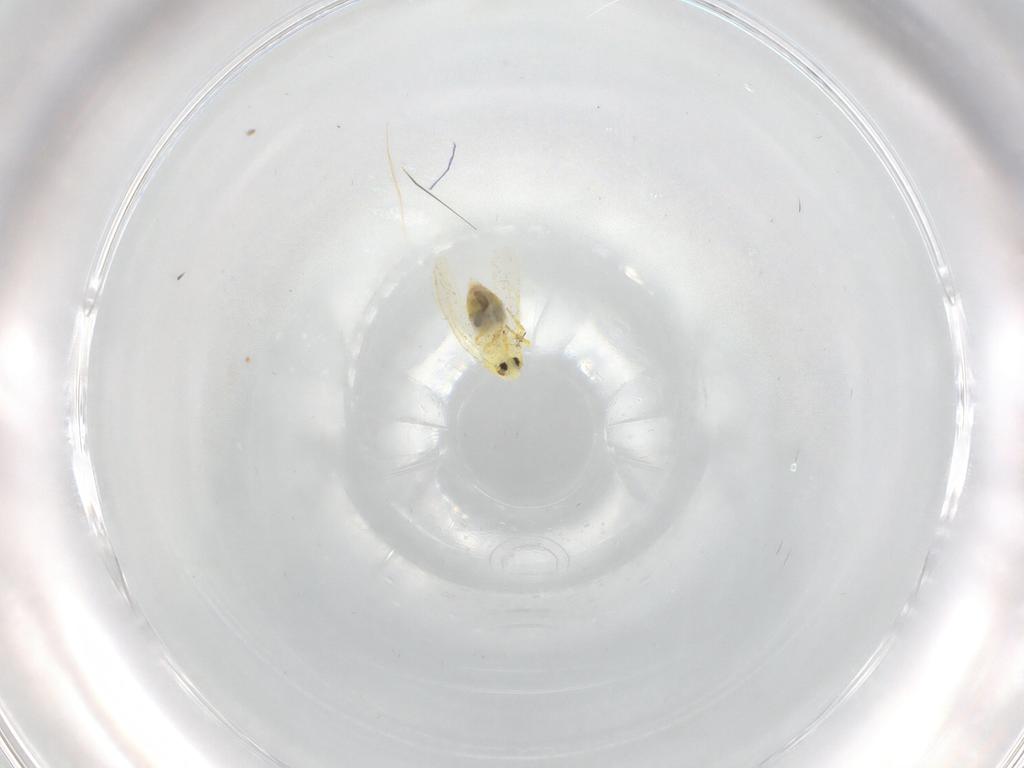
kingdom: Animalia
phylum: Arthropoda
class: Insecta
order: Hemiptera
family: Aleyrodidae
